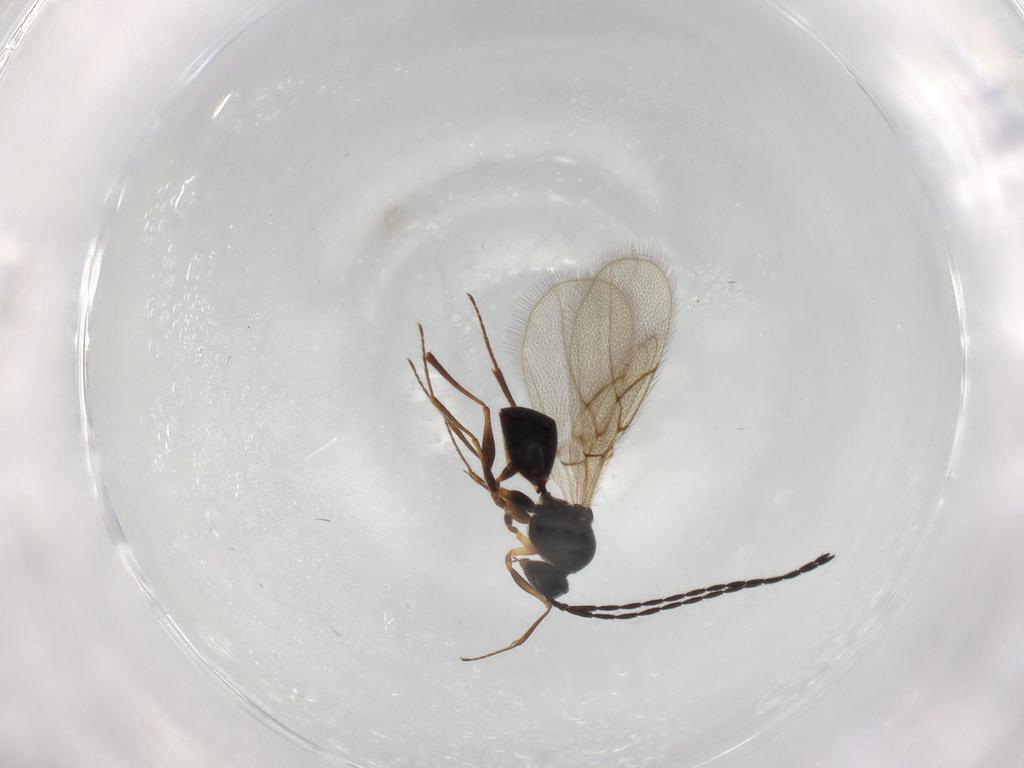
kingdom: Animalia
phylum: Arthropoda
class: Insecta
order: Hymenoptera
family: Figitidae
